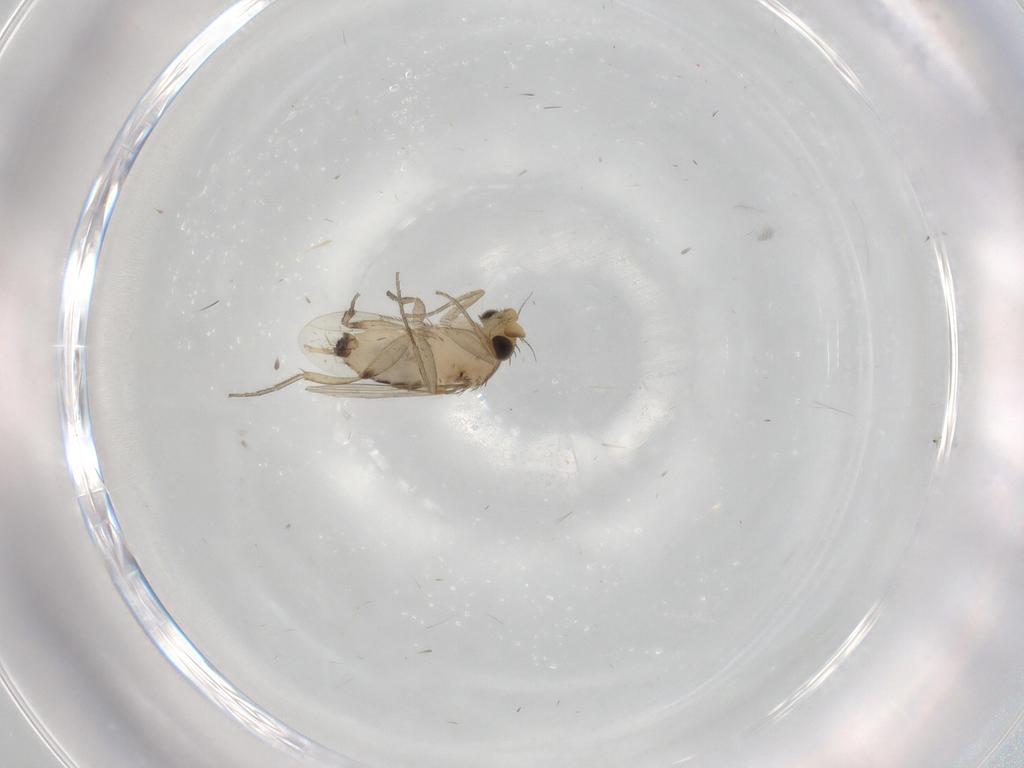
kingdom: Animalia
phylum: Arthropoda
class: Insecta
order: Diptera
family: Phoridae
